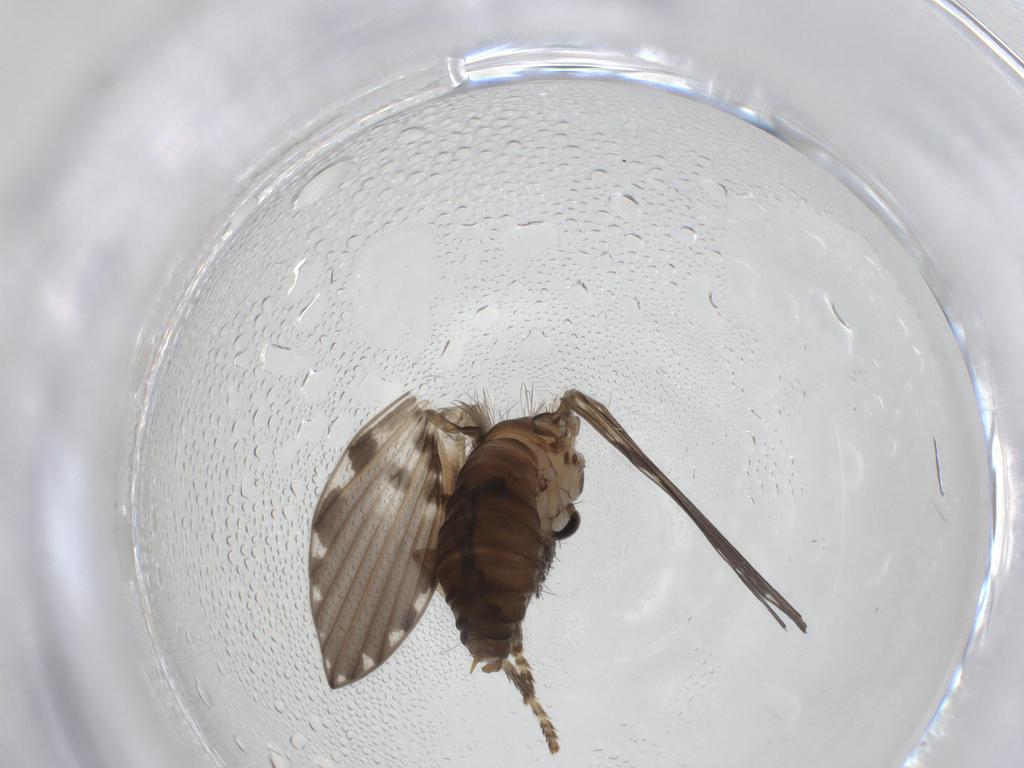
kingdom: Animalia
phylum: Arthropoda
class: Insecta
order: Diptera
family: Psychodidae
